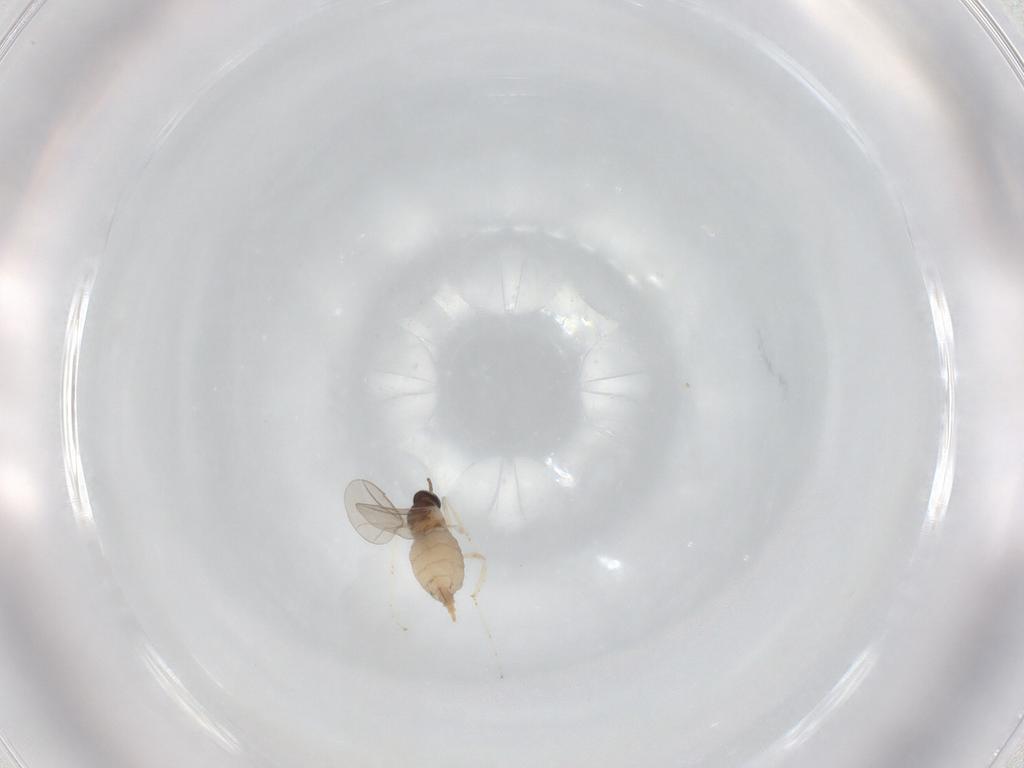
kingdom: Animalia
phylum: Arthropoda
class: Insecta
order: Diptera
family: Cecidomyiidae
